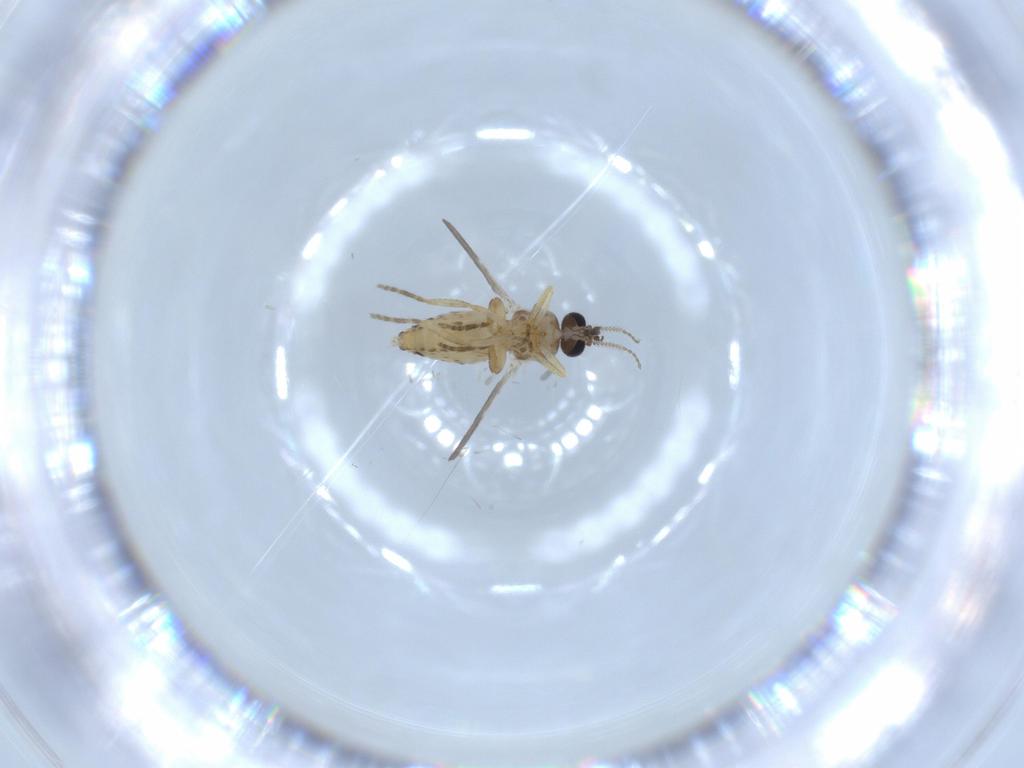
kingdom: Animalia
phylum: Arthropoda
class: Insecta
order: Diptera
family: Ceratopogonidae
